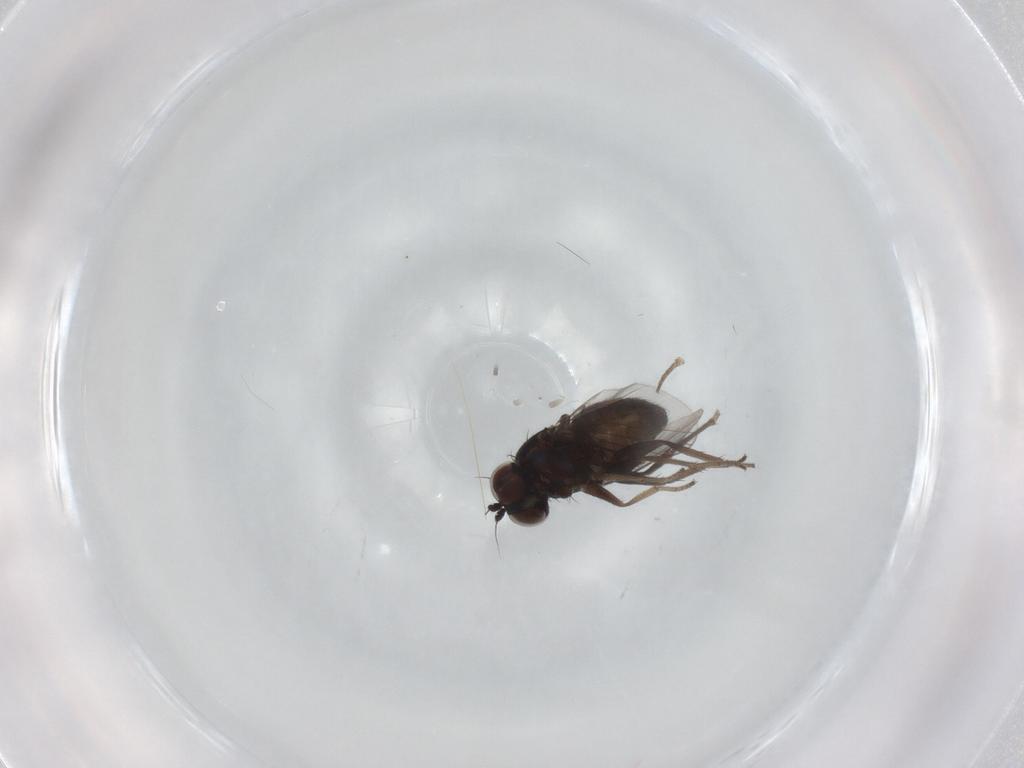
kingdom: Animalia
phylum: Arthropoda
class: Insecta
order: Diptera
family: Dolichopodidae
